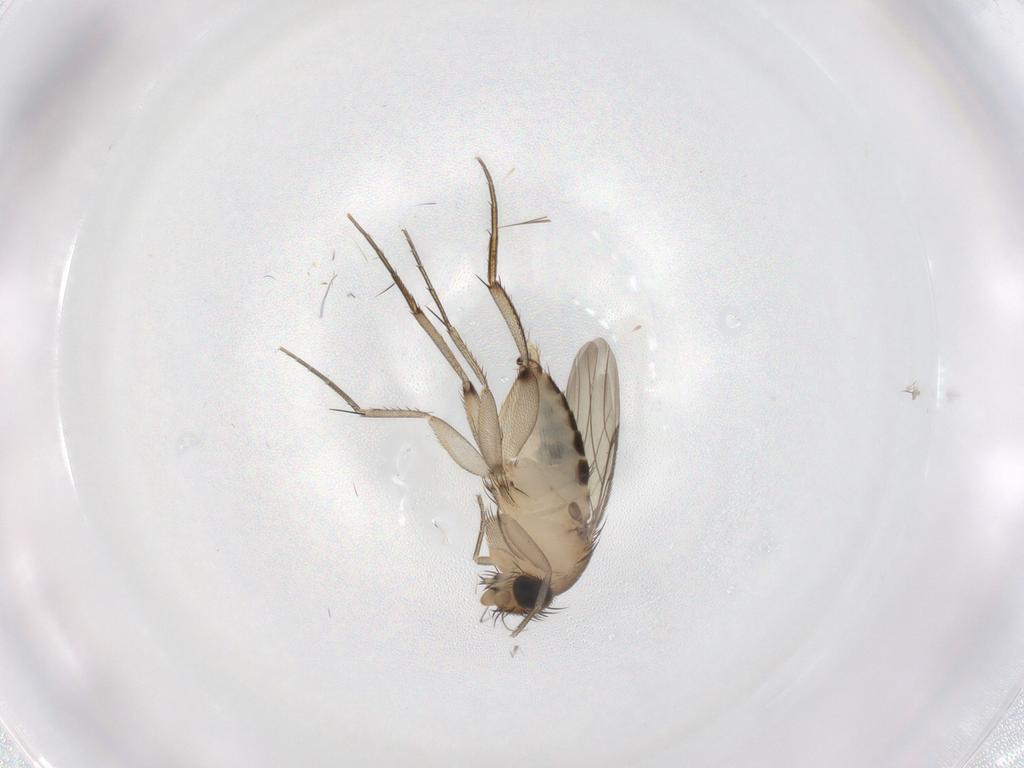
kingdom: Animalia
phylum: Arthropoda
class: Insecta
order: Diptera
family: Phoridae
